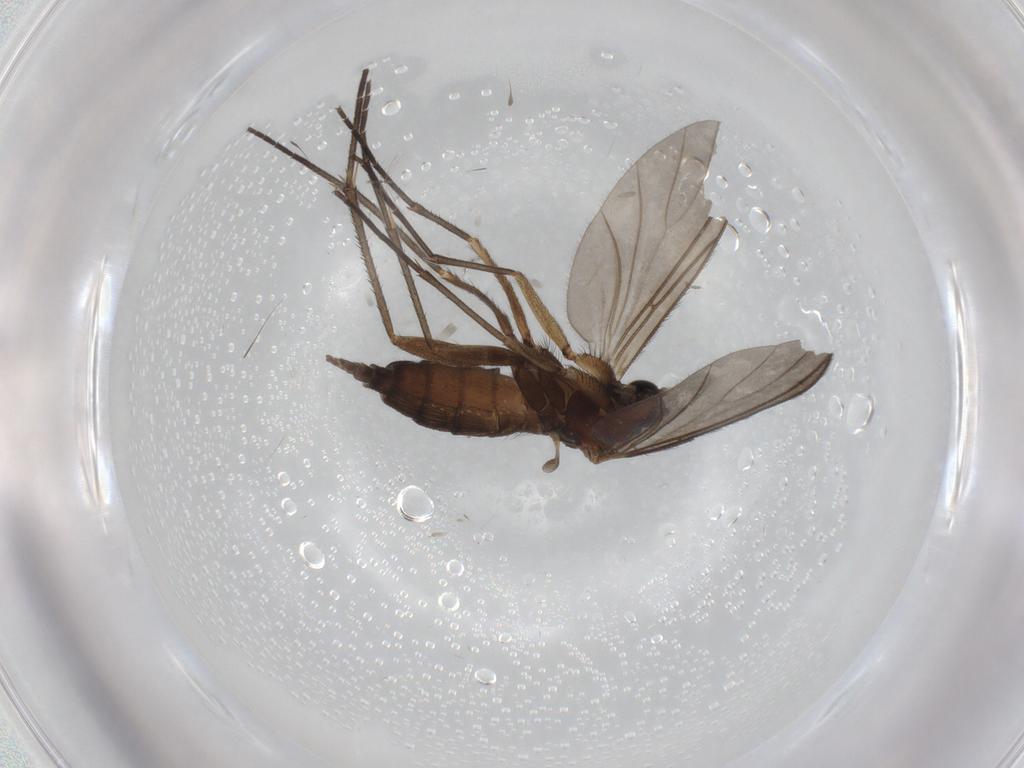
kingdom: Animalia
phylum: Arthropoda
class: Insecta
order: Diptera
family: Sciaridae
